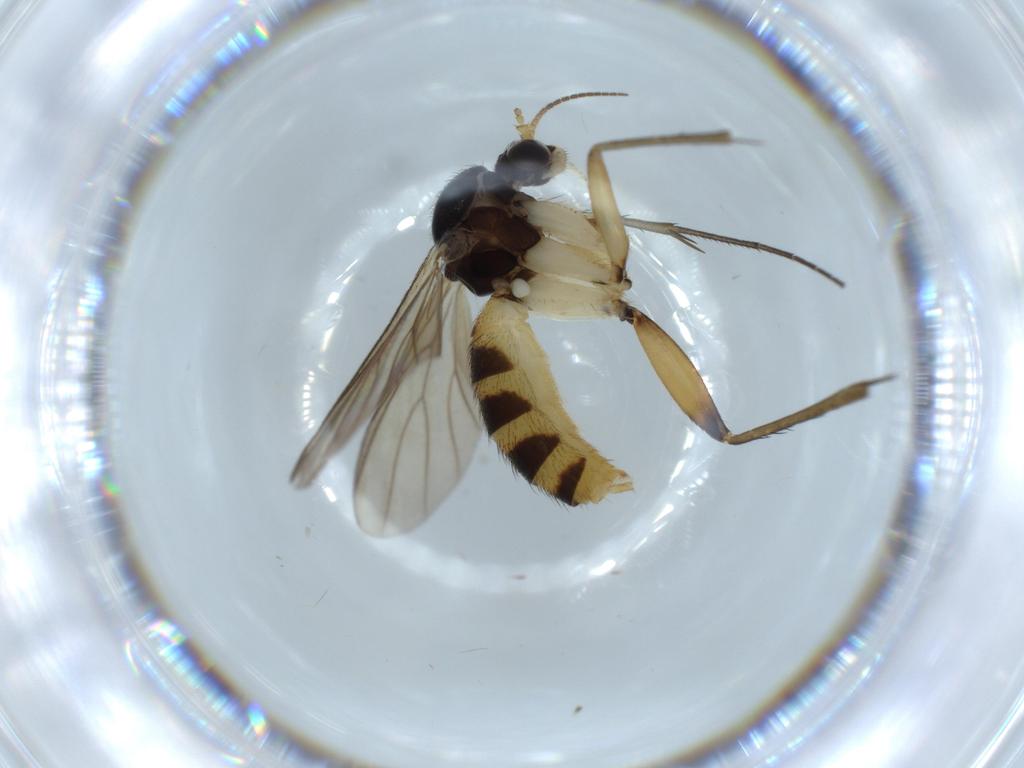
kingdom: Animalia
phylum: Arthropoda
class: Insecta
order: Diptera
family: Mycetophilidae
